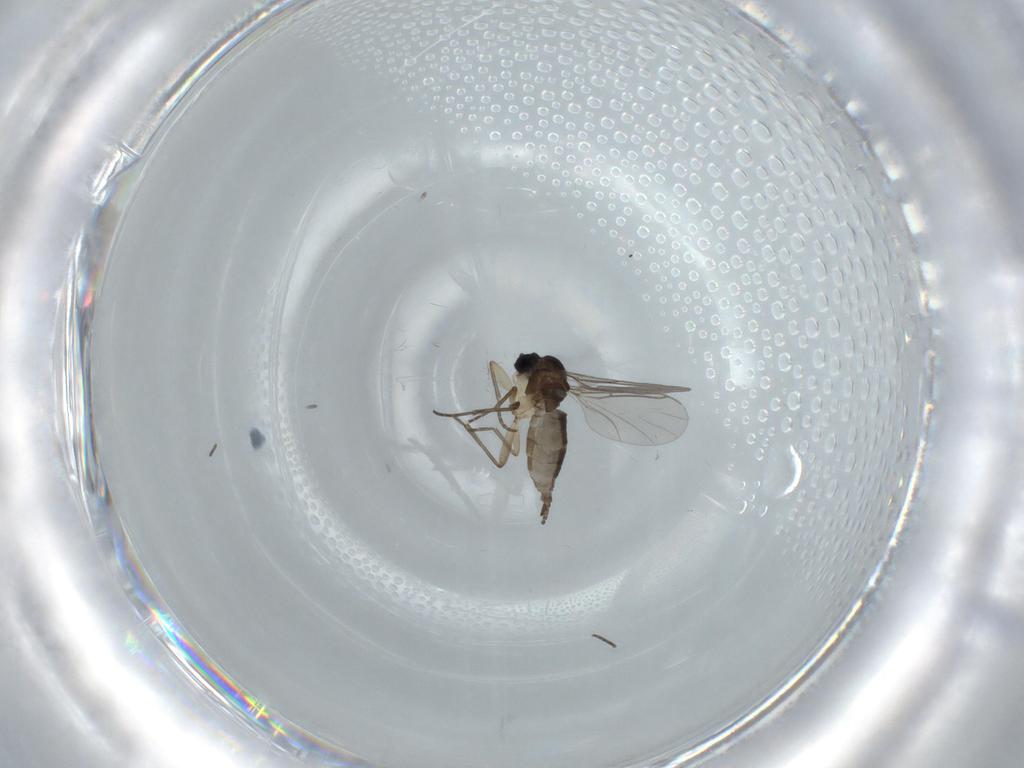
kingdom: Animalia
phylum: Arthropoda
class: Insecta
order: Diptera
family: Sciaridae
